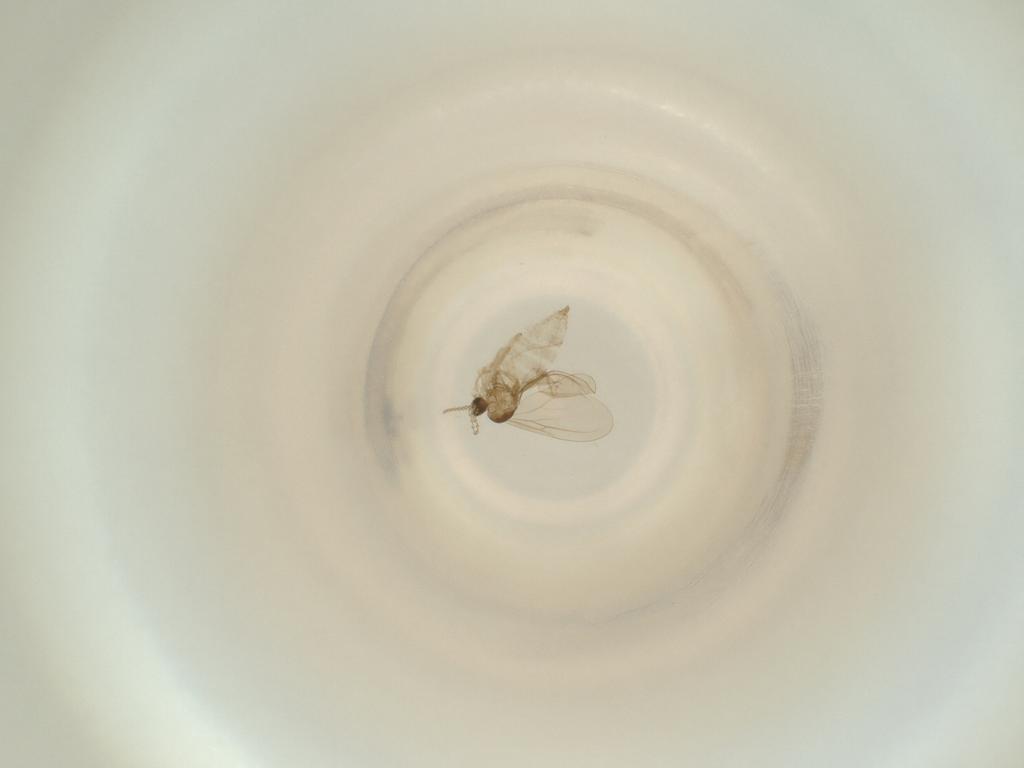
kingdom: Animalia
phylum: Arthropoda
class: Insecta
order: Diptera
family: Cecidomyiidae
